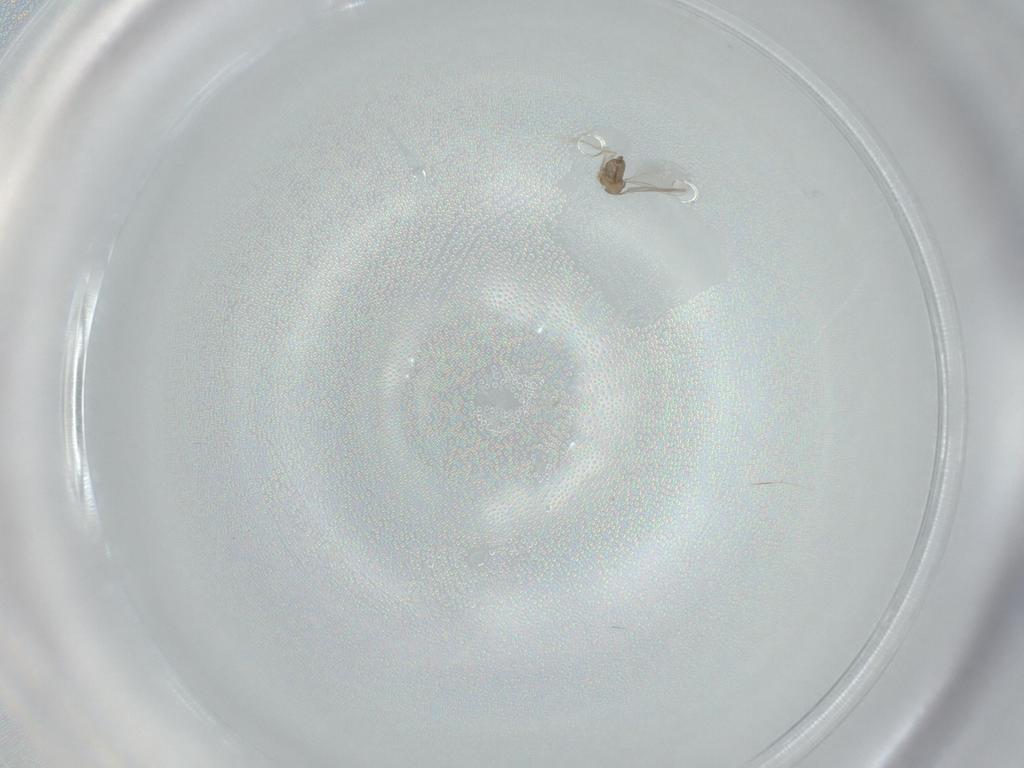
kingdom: Animalia
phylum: Arthropoda
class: Insecta
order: Diptera
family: Cecidomyiidae
